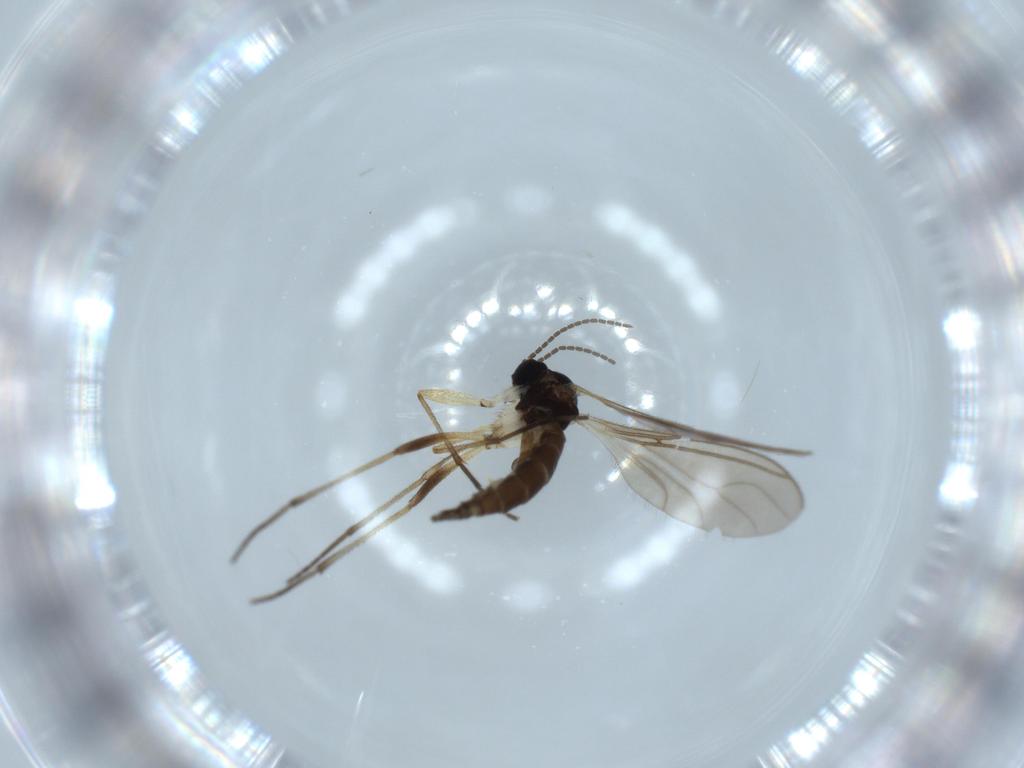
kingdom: Animalia
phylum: Arthropoda
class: Insecta
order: Diptera
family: Sciaridae
